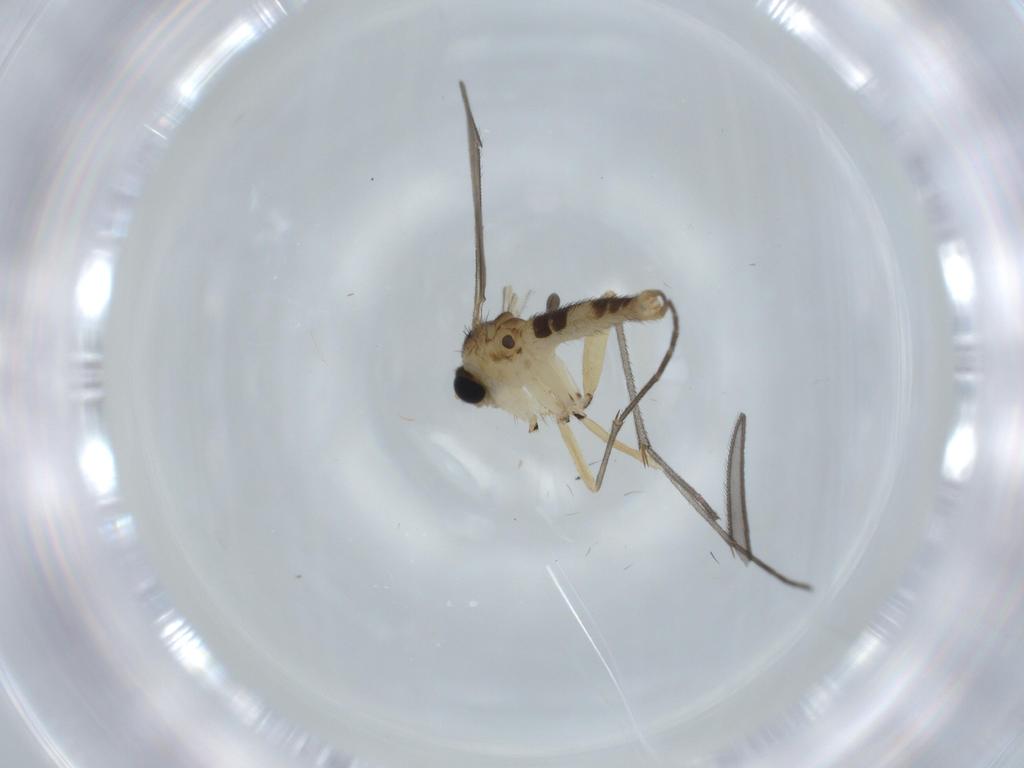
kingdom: Animalia
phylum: Arthropoda
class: Insecta
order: Diptera
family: Sciaridae
